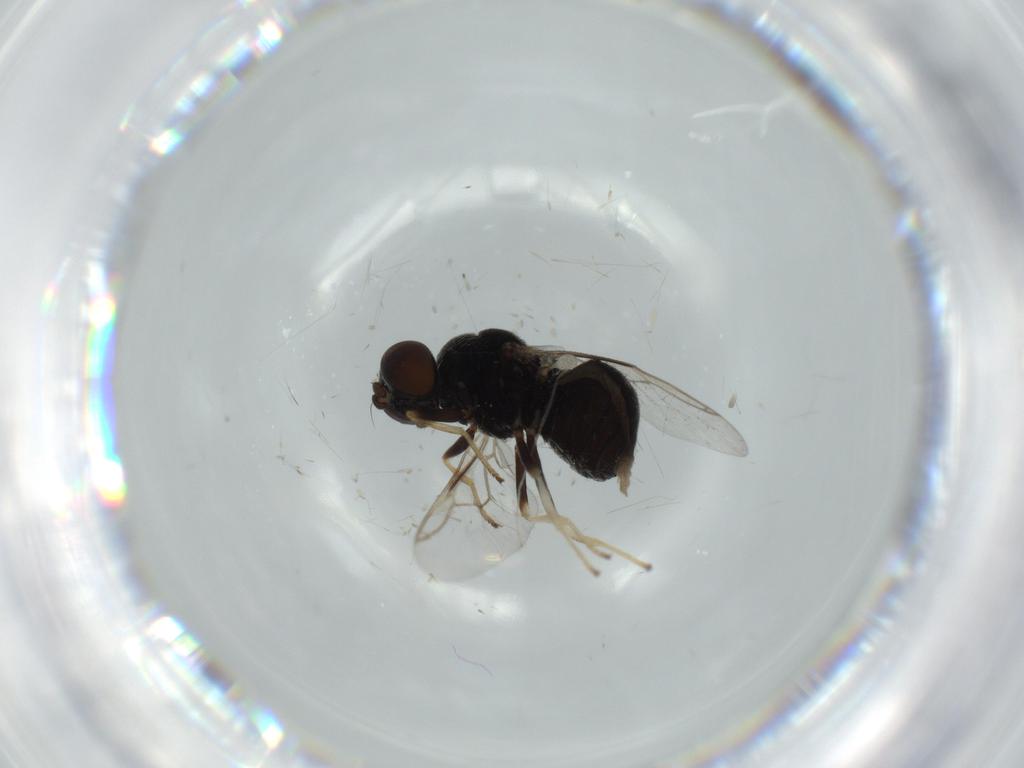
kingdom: Animalia
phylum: Arthropoda
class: Insecta
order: Diptera
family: Stratiomyidae
